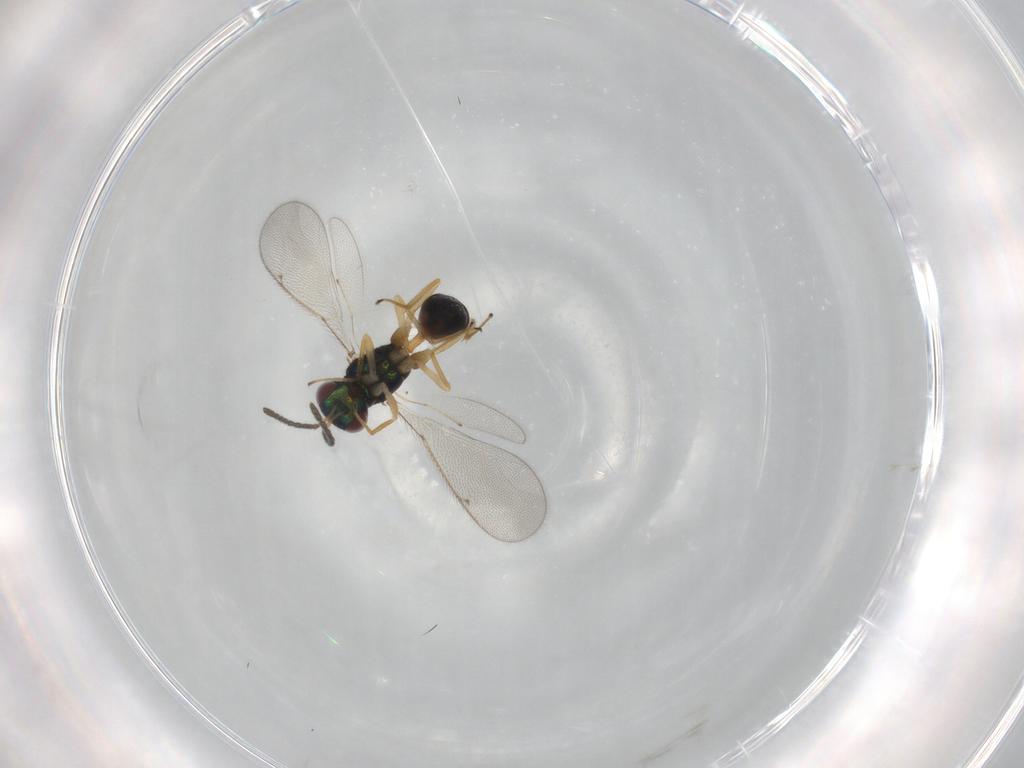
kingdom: Animalia
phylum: Arthropoda
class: Insecta
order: Hymenoptera
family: Tetracampidae
